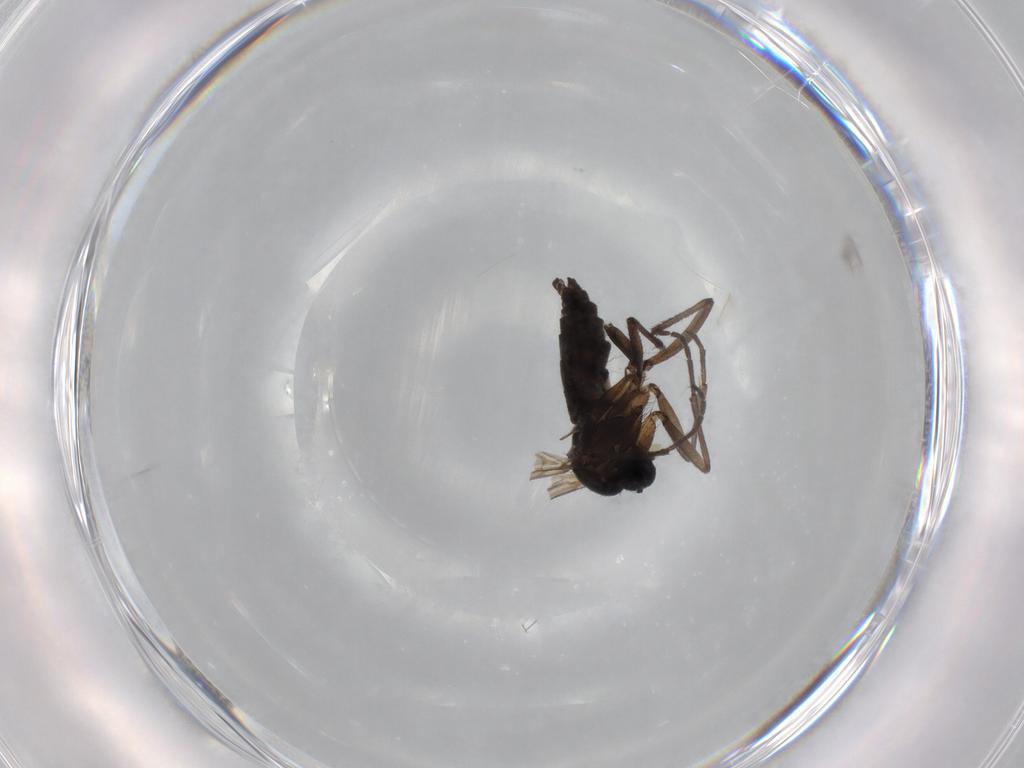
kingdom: Animalia
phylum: Arthropoda
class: Insecta
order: Diptera
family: Sciaridae
